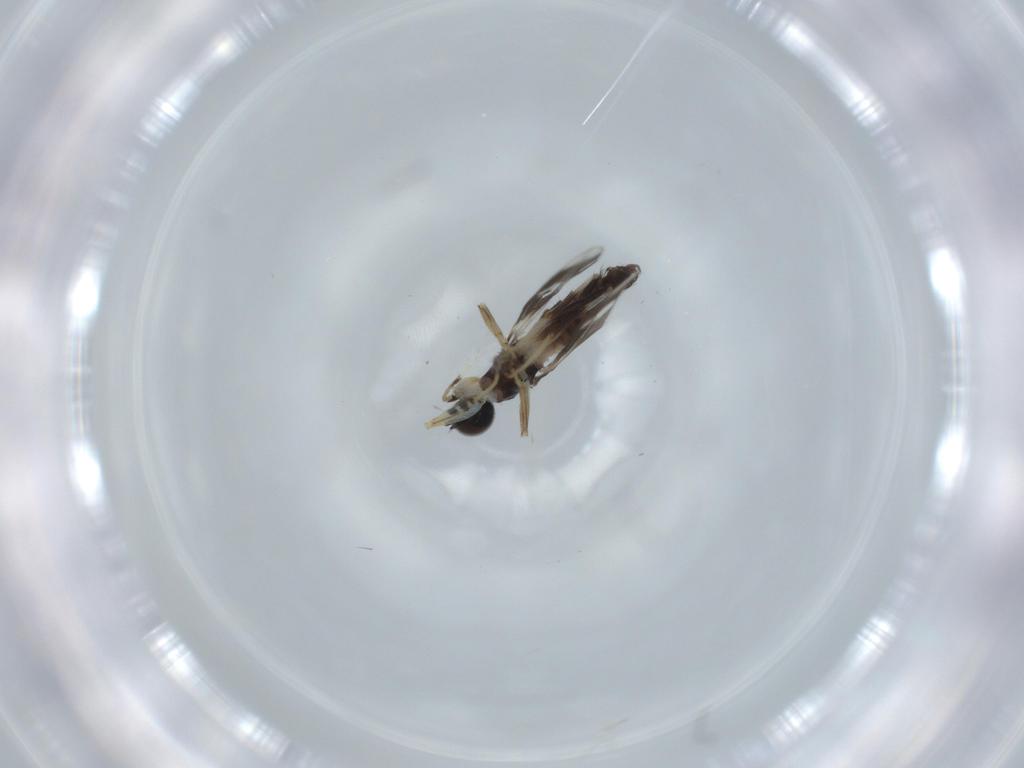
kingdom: Animalia
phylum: Arthropoda
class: Insecta
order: Diptera
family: Hybotidae
